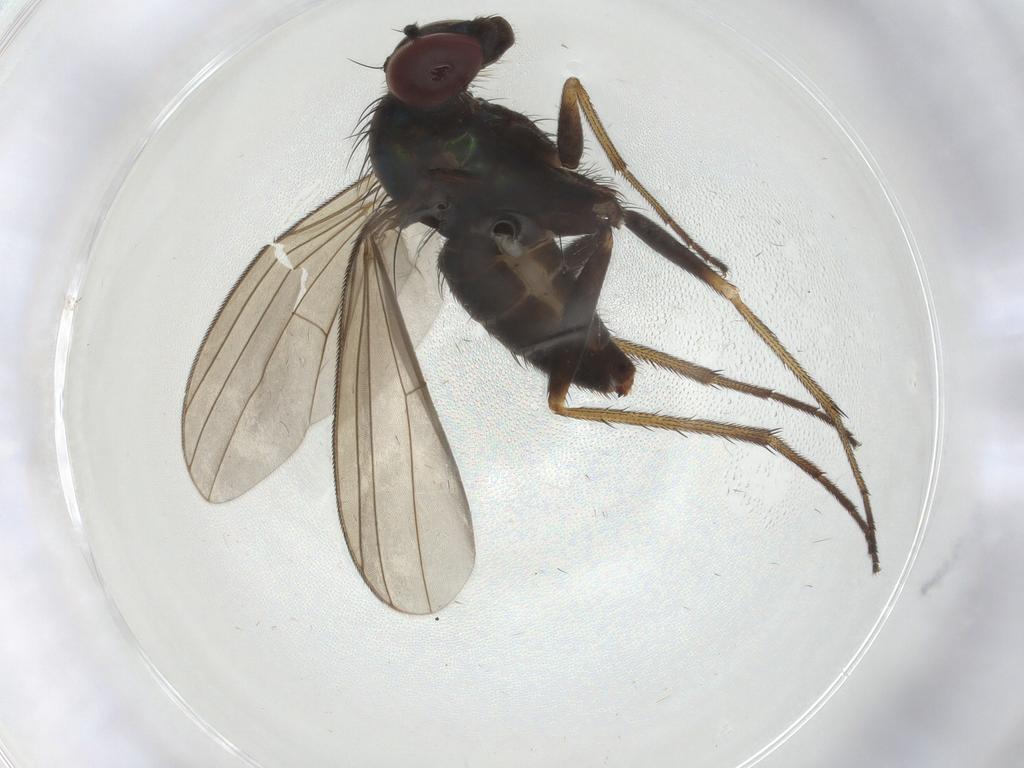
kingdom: Animalia
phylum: Arthropoda
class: Insecta
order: Diptera
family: Dolichopodidae
